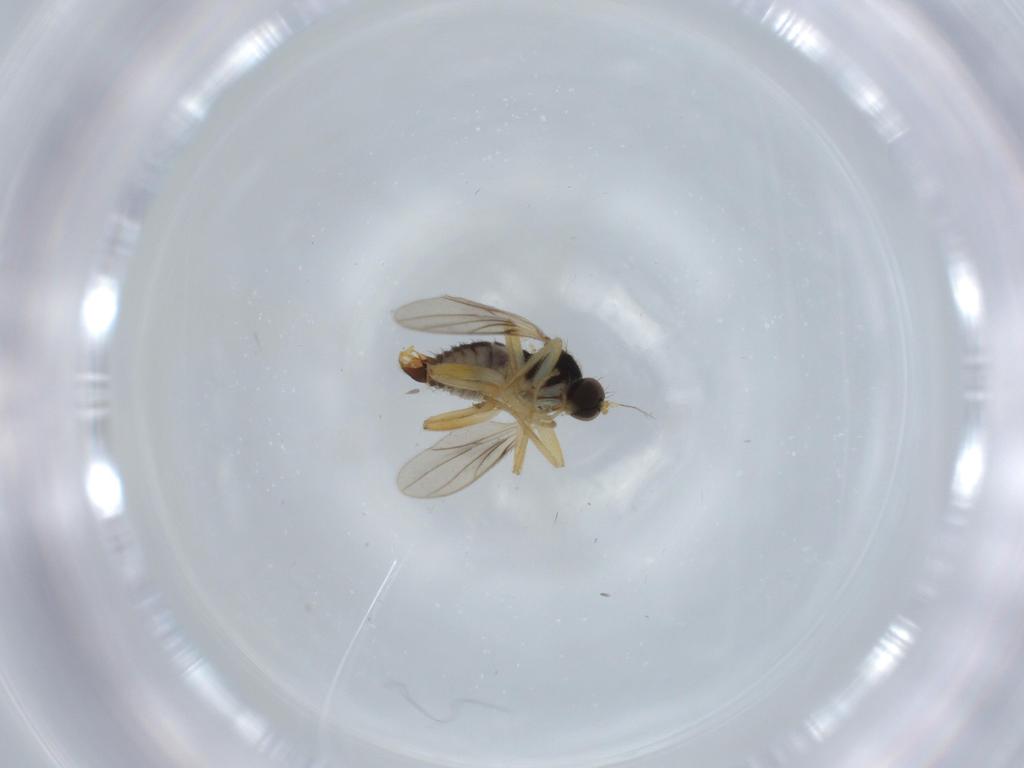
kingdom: Animalia
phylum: Arthropoda
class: Insecta
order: Diptera
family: Hybotidae
